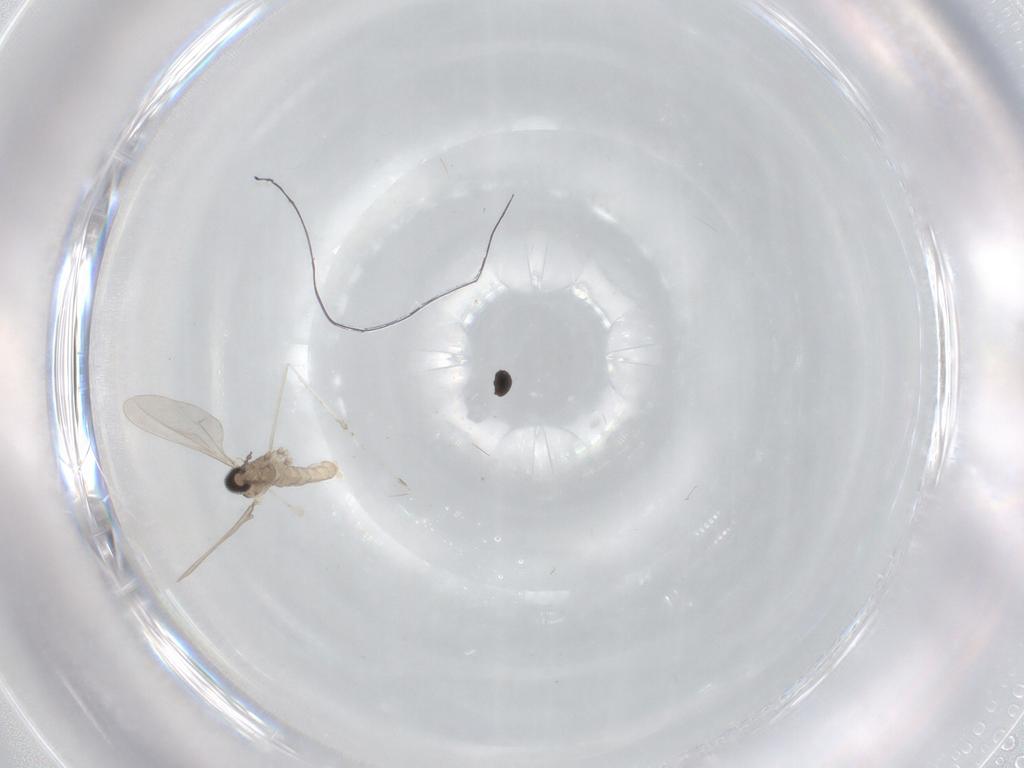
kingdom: Animalia
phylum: Arthropoda
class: Insecta
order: Diptera
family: Cecidomyiidae
